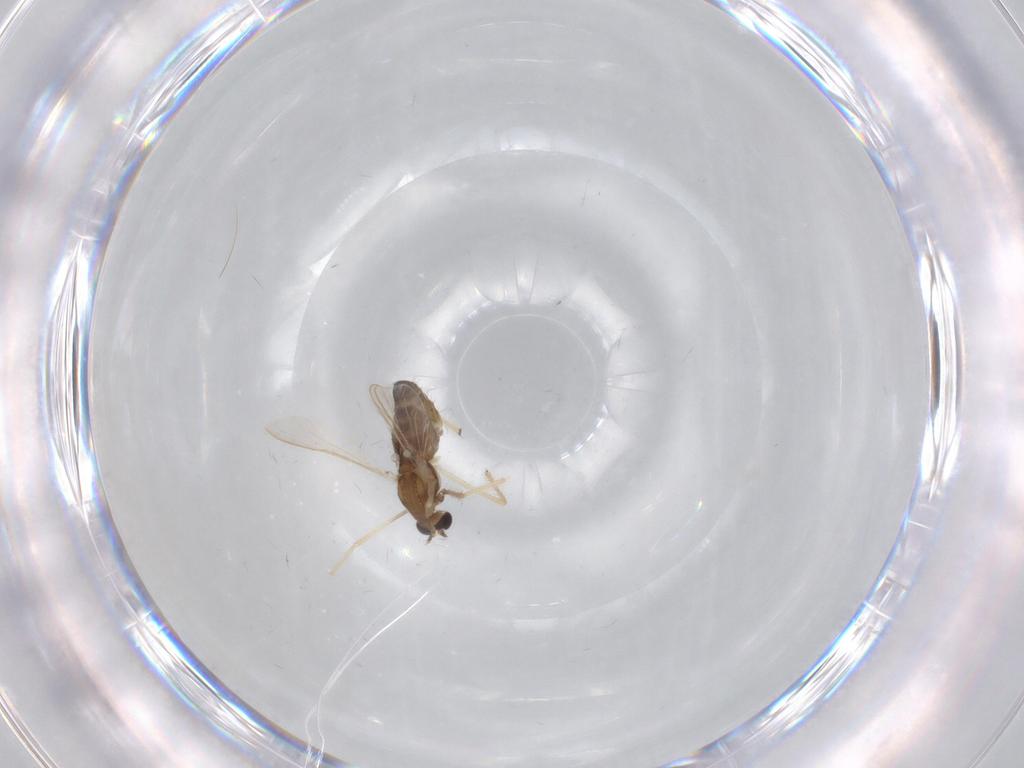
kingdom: Animalia
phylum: Arthropoda
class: Insecta
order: Diptera
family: Chironomidae
